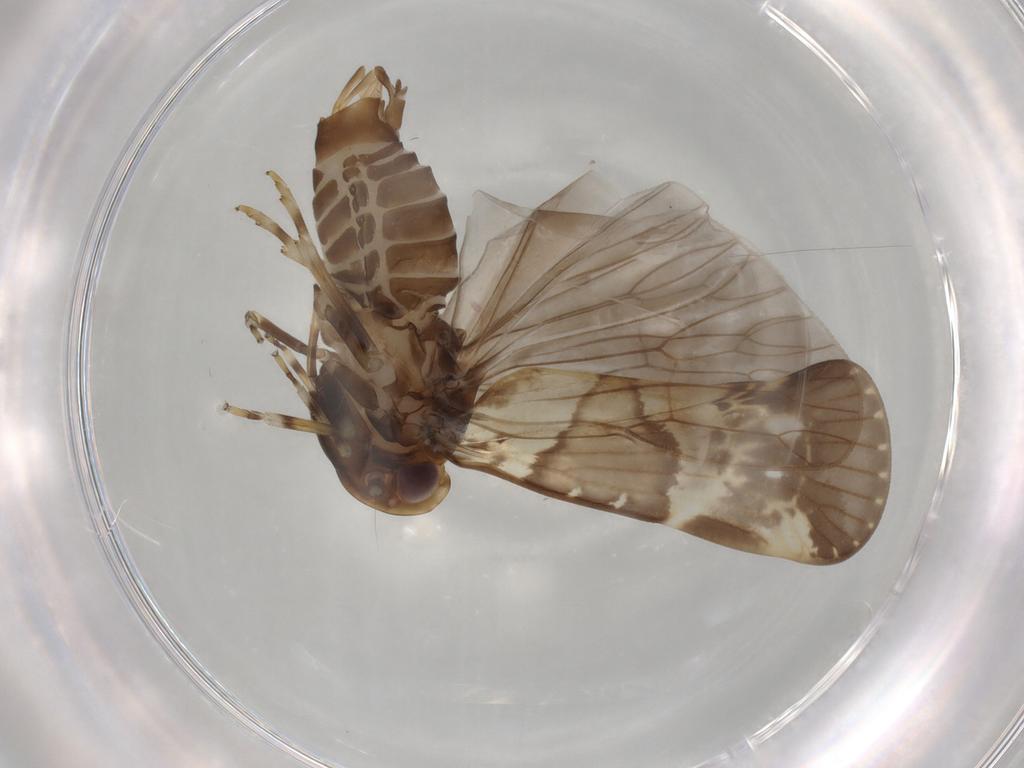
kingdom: Animalia
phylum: Arthropoda
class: Insecta
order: Hemiptera
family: Cixiidae
